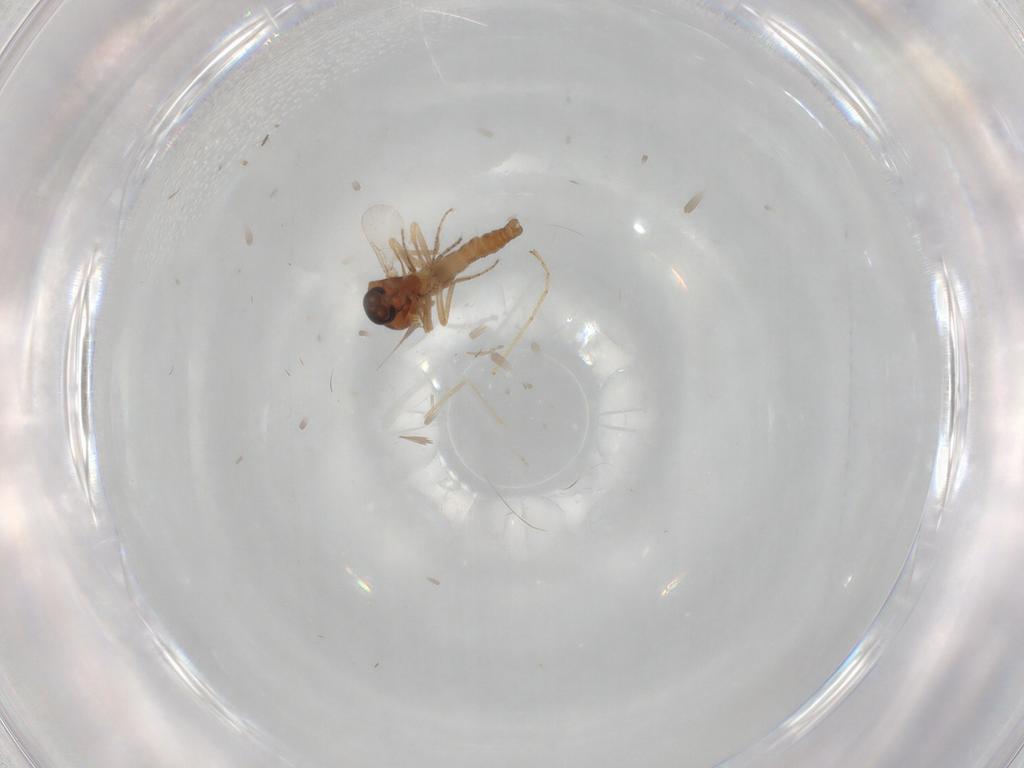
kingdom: Animalia
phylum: Arthropoda
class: Insecta
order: Diptera
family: Ceratopogonidae
